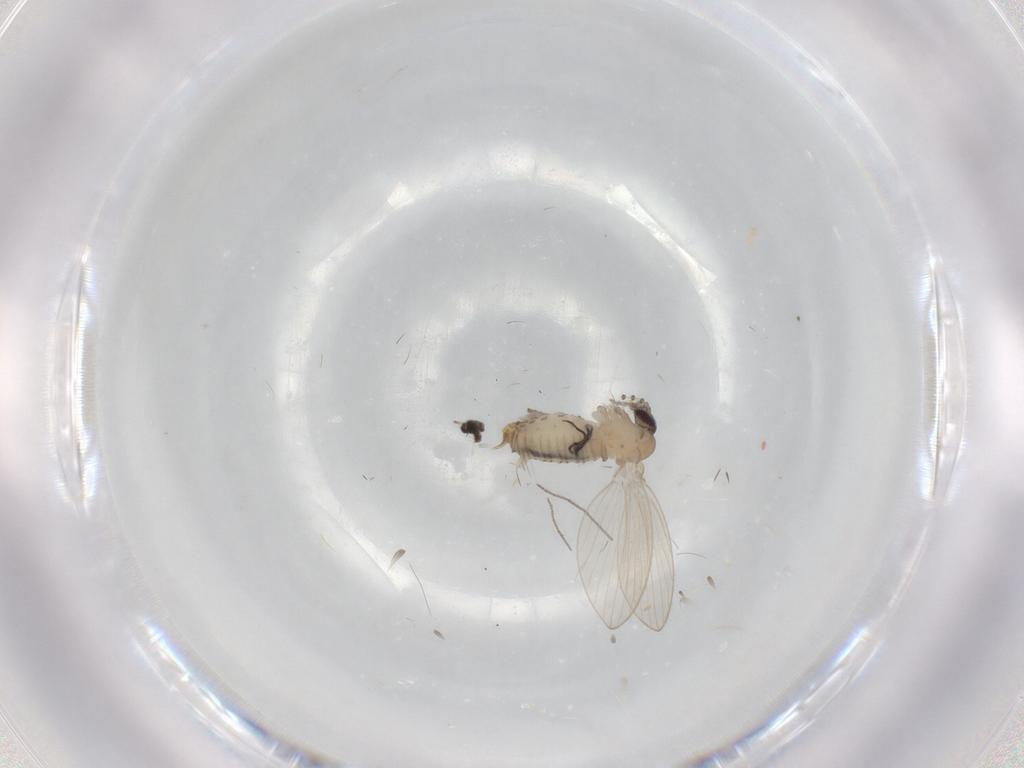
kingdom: Animalia
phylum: Arthropoda
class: Insecta
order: Diptera
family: Psychodidae
